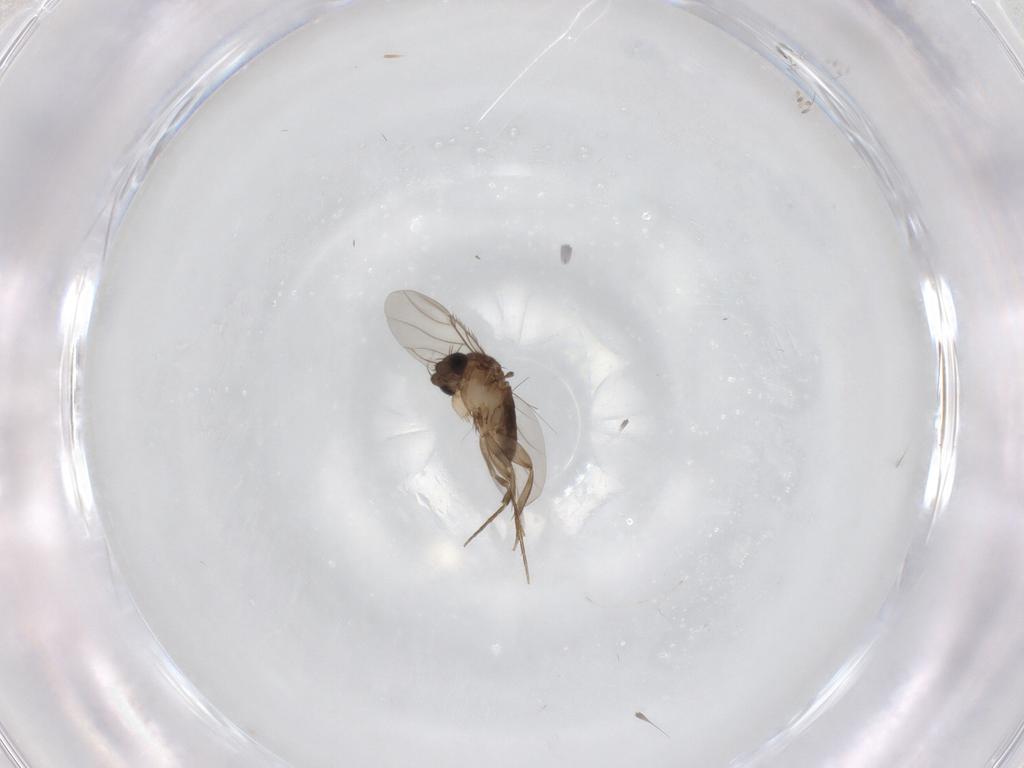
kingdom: Animalia
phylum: Arthropoda
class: Insecta
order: Diptera
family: Phoridae
